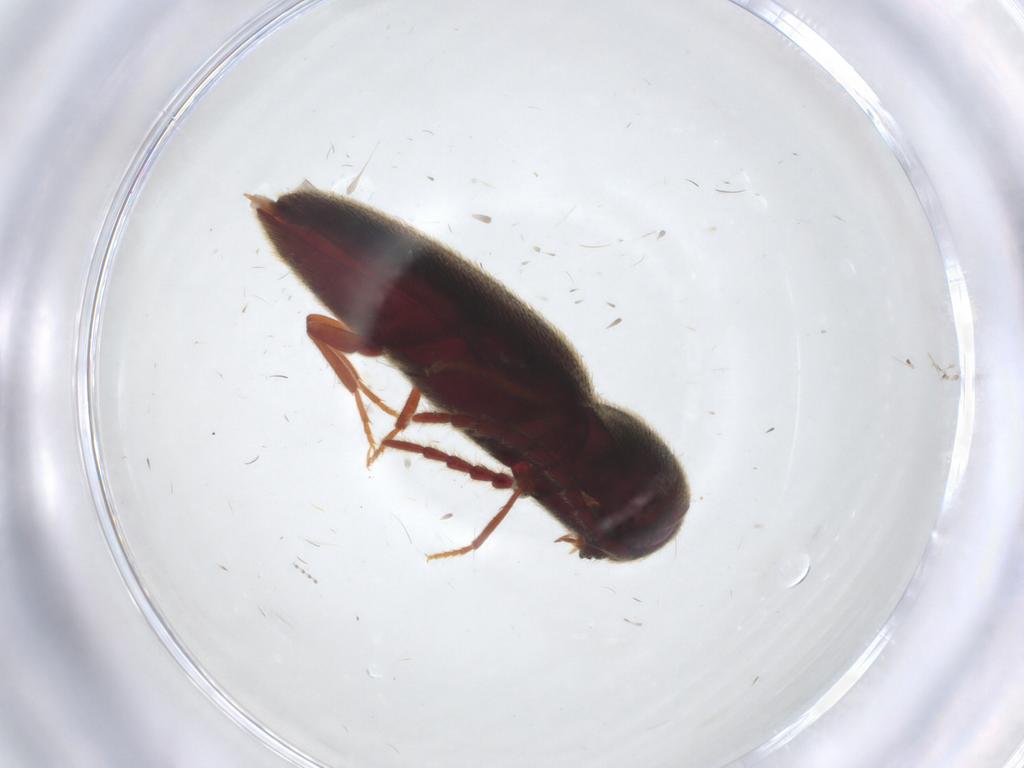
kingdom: Animalia
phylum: Arthropoda
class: Insecta
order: Coleoptera
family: Eucnemidae
